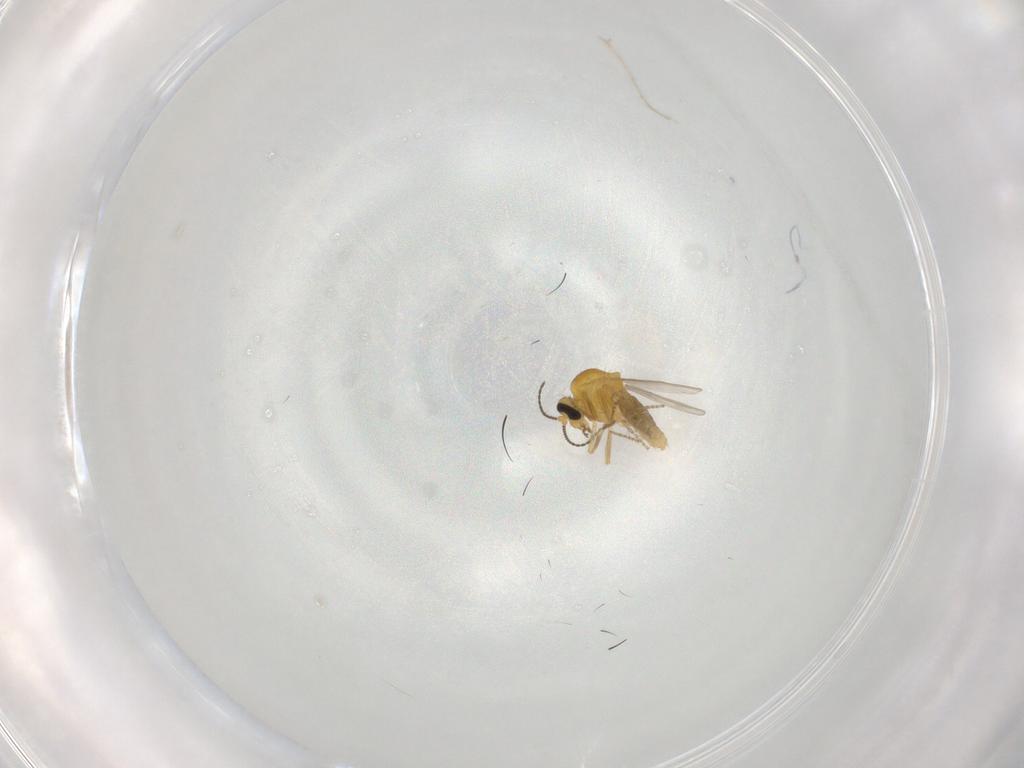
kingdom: Animalia
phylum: Arthropoda
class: Insecta
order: Diptera
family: Ceratopogonidae
